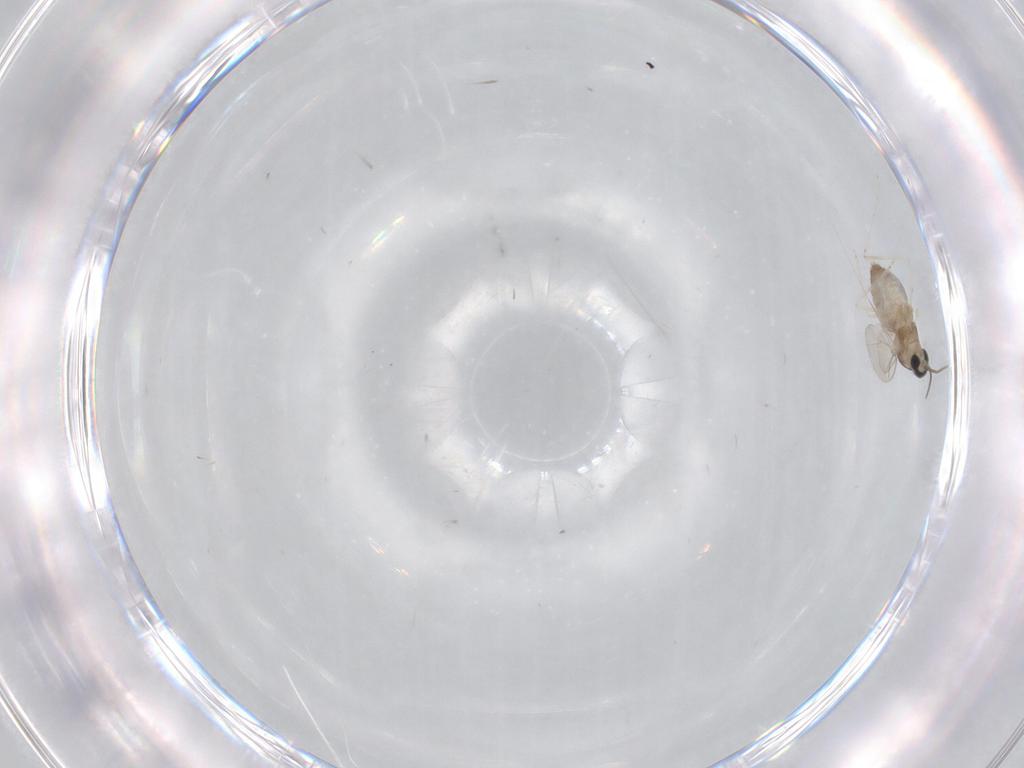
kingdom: Animalia
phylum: Arthropoda
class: Insecta
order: Diptera
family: Cecidomyiidae
